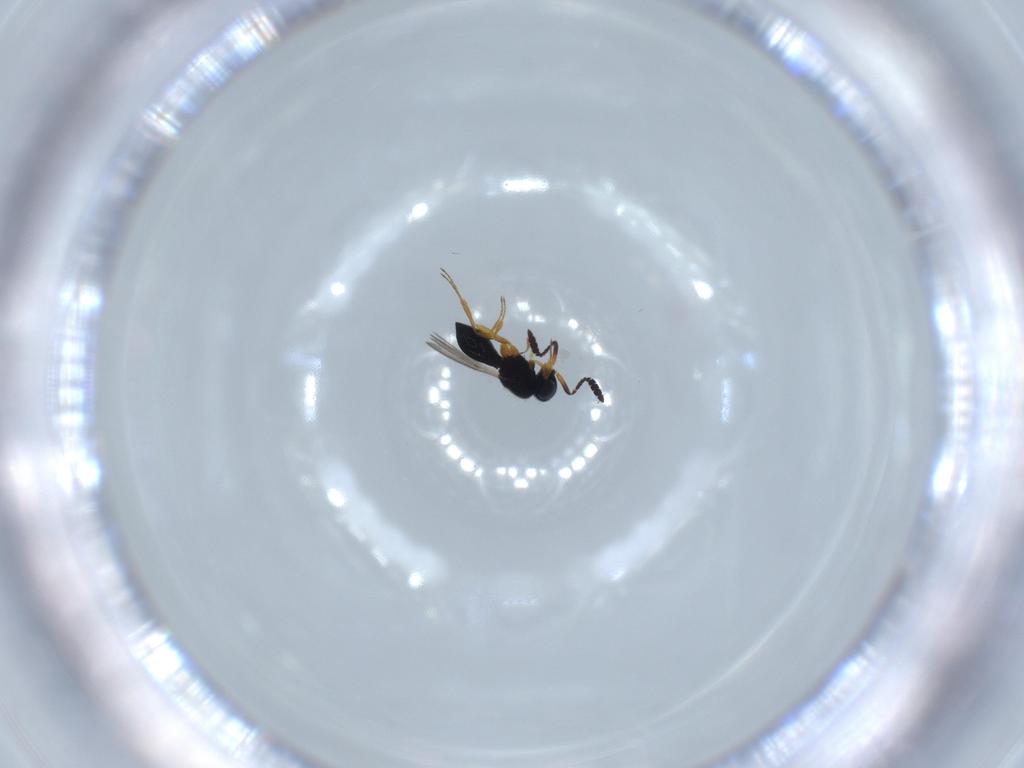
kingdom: Animalia
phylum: Arthropoda
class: Insecta
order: Hymenoptera
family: Scelionidae
